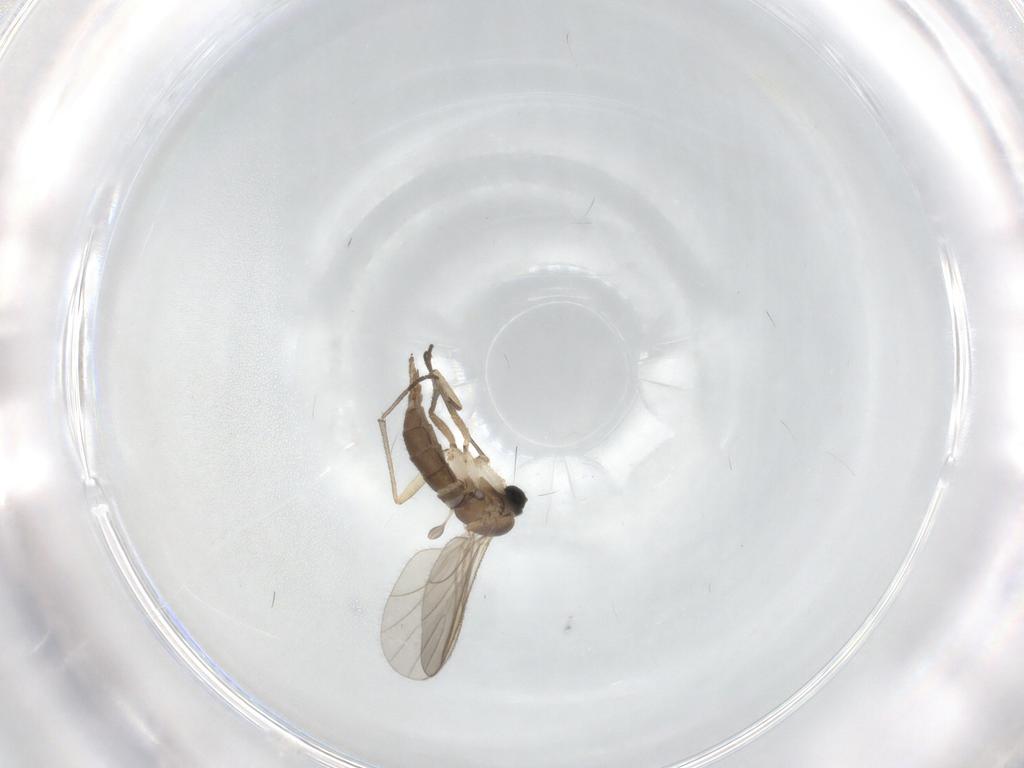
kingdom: Animalia
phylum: Arthropoda
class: Insecta
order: Diptera
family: Sciaridae
